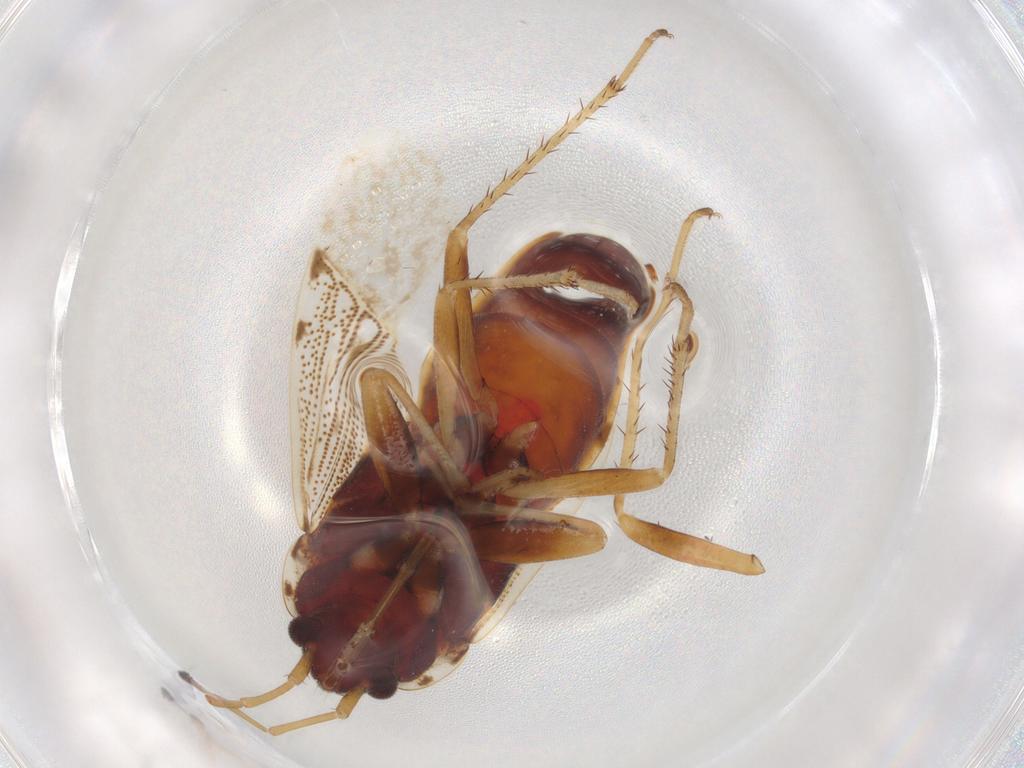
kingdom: Animalia
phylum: Arthropoda
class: Insecta
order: Hemiptera
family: Rhyparochromidae
